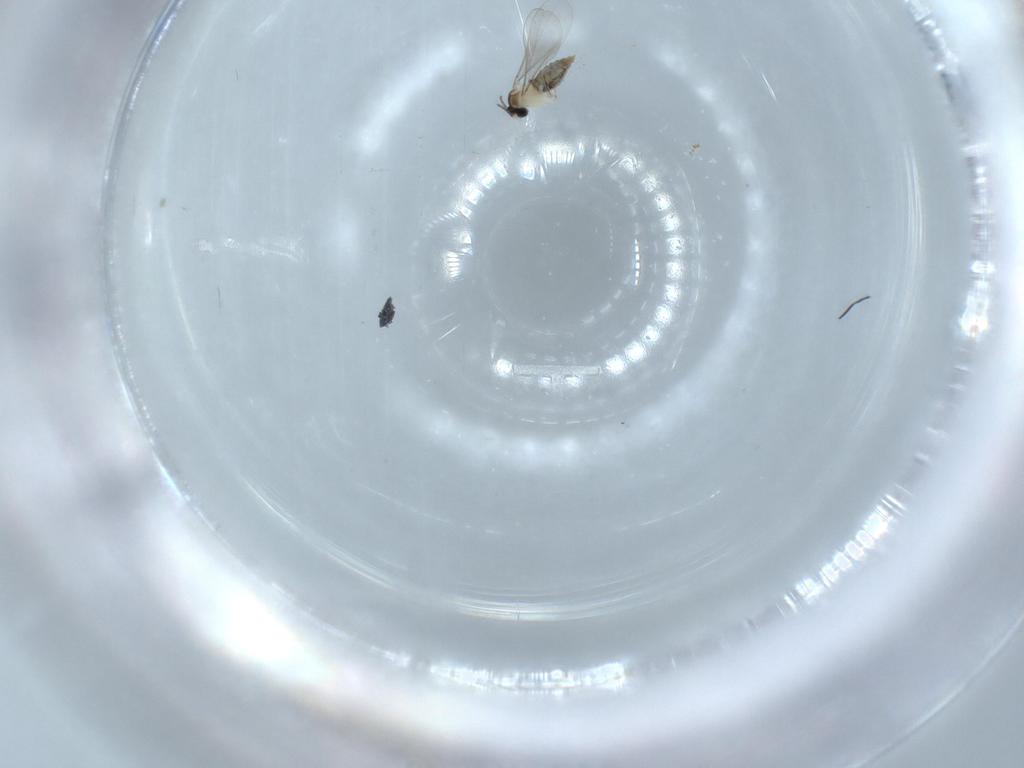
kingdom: Animalia
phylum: Arthropoda
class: Insecta
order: Diptera
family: Cecidomyiidae
